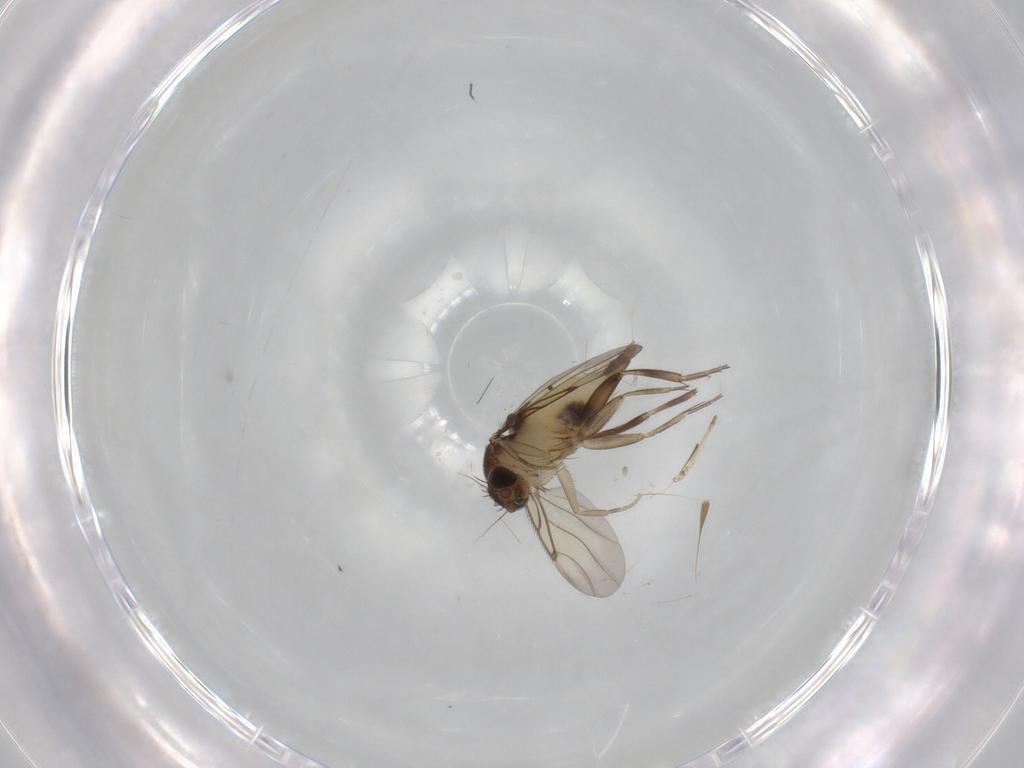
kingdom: Animalia
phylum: Arthropoda
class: Insecta
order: Diptera
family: Phoridae
